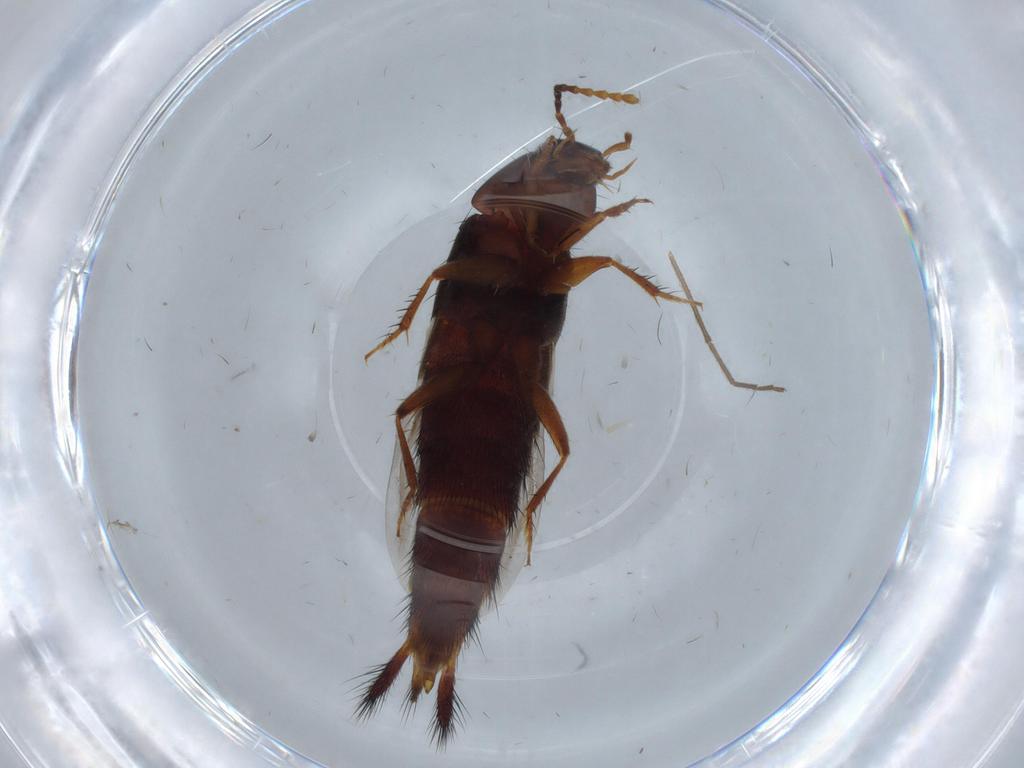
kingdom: Animalia
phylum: Arthropoda
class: Insecta
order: Coleoptera
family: Staphylinidae
